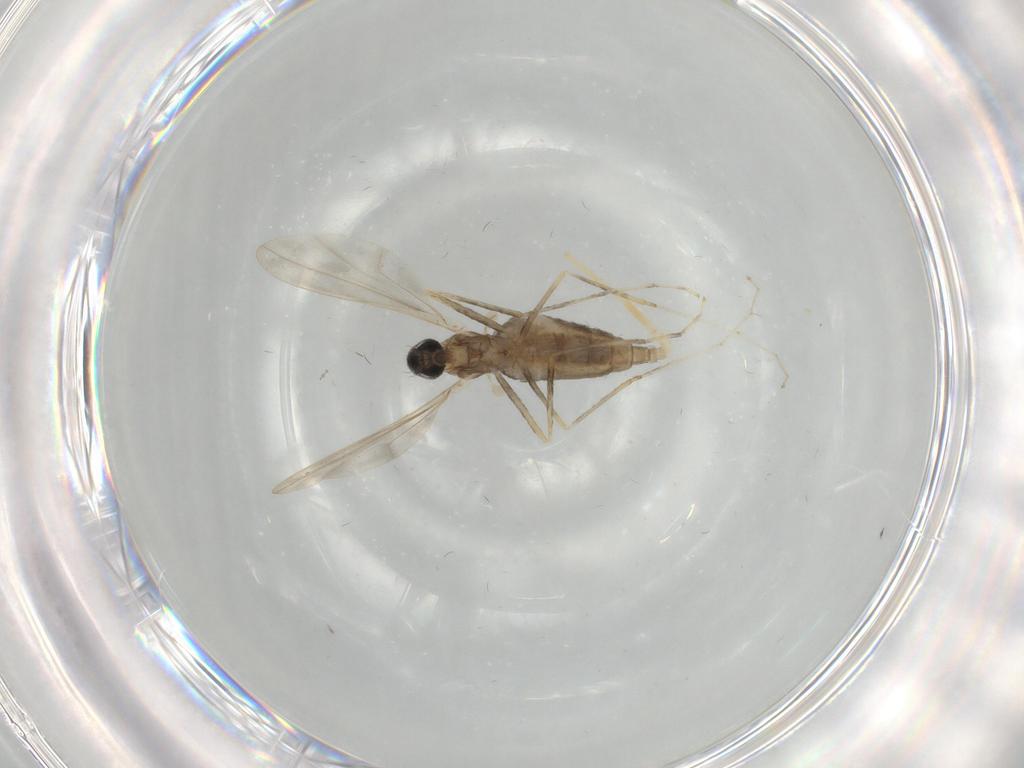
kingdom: Animalia
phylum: Arthropoda
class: Insecta
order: Diptera
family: Cecidomyiidae
